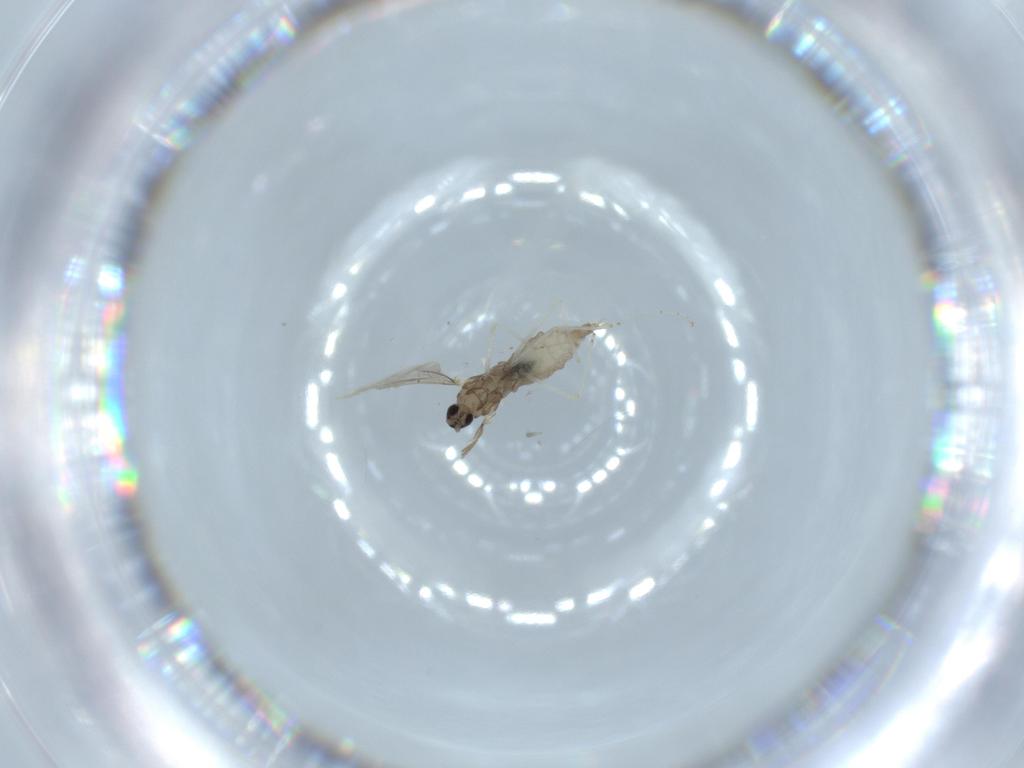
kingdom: Animalia
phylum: Arthropoda
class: Insecta
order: Diptera
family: Cecidomyiidae
